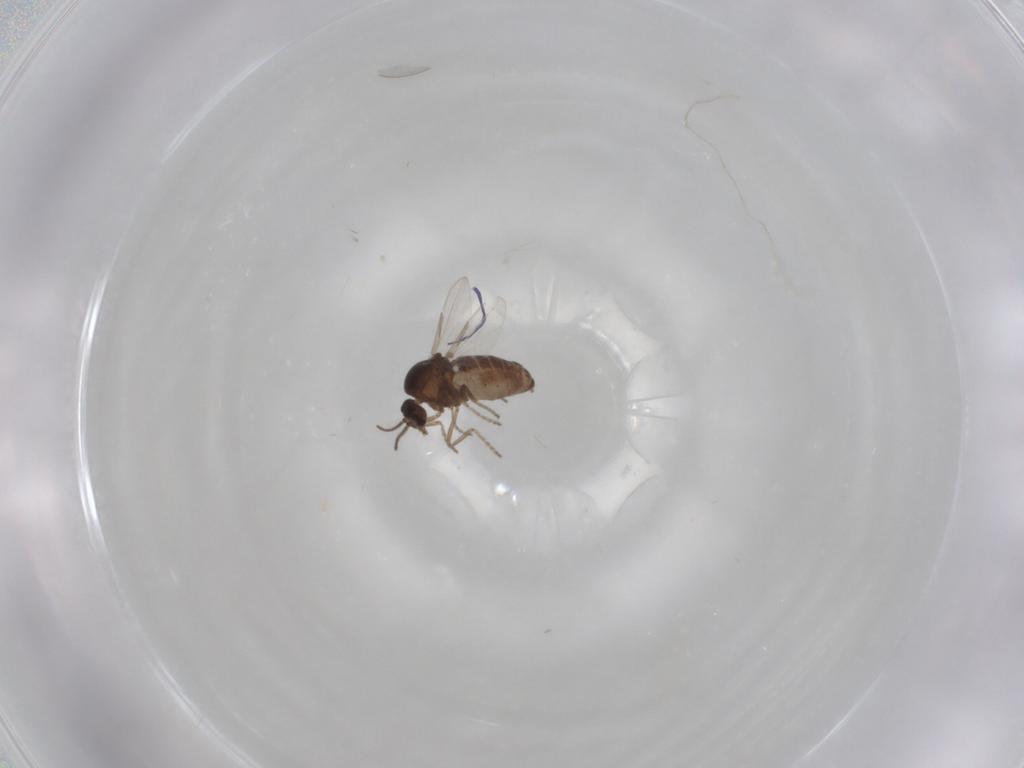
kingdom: Animalia
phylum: Arthropoda
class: Insecta
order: Diptera
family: Ceratopogonidae
